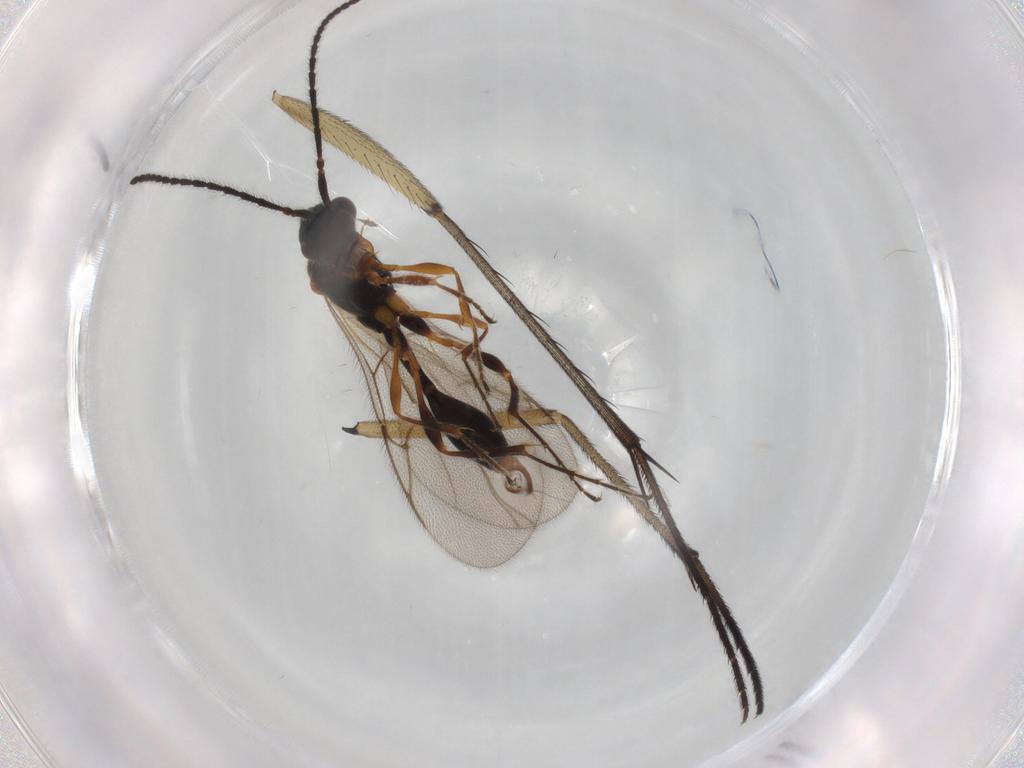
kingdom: Animalia
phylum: Arthropoda
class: Insecta
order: Hymenoptera
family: Diapriidae
